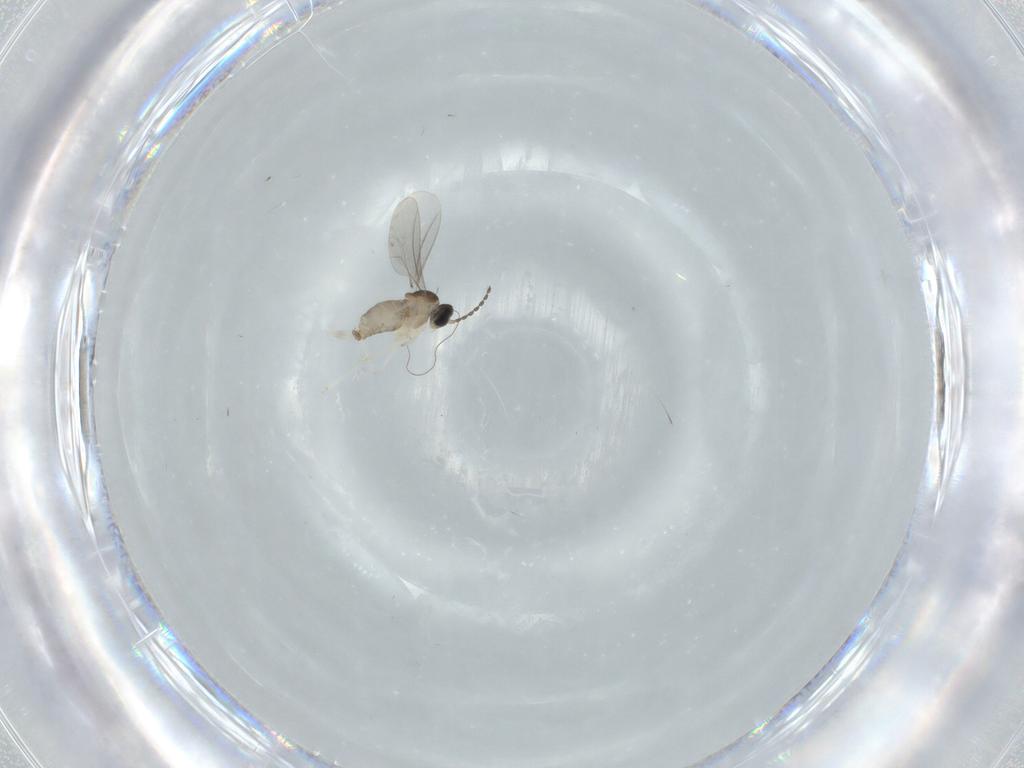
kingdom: Animalia
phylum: Arthropoda
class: Insecta
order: Diptera
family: Cecidomyiidae
